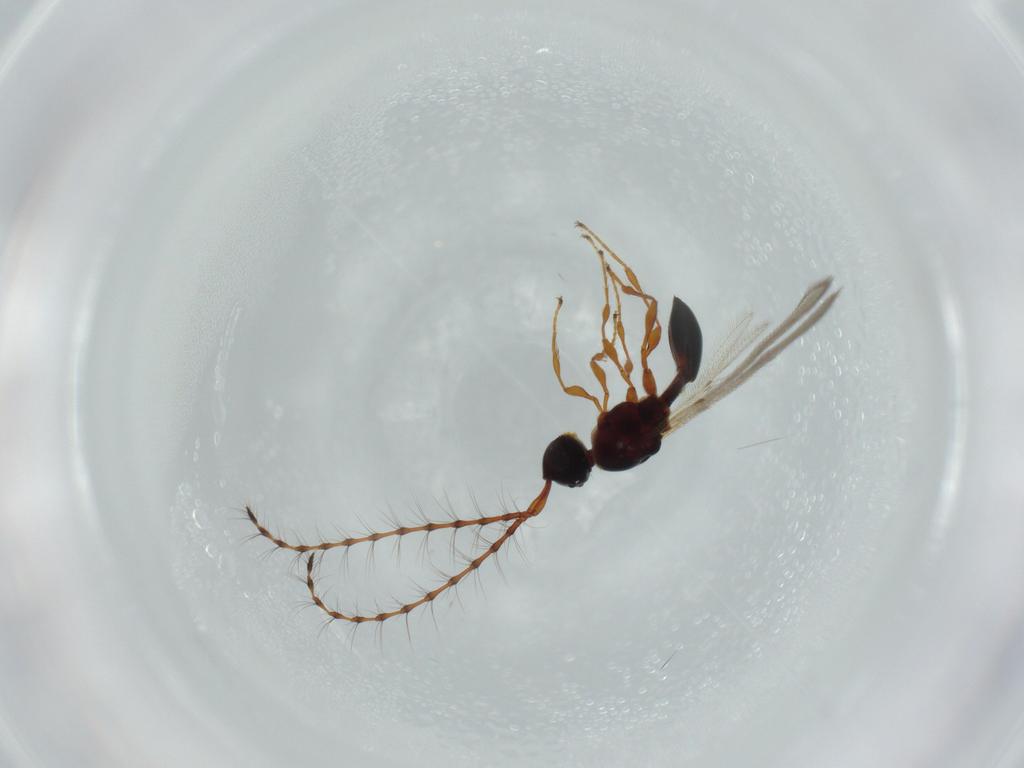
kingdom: Animalia
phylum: Arthropoda
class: Insecta
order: Hymenoptera
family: Diapriidae
